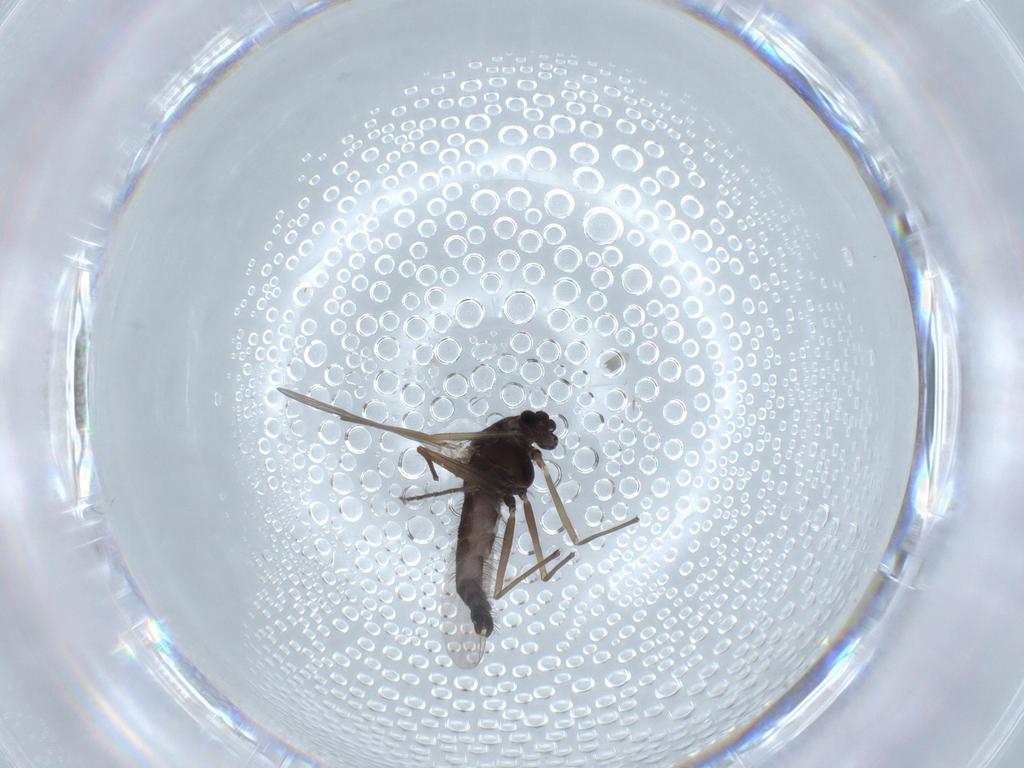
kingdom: Animalia
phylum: Arthropoda
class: Insecta
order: Diptera
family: Chironomidae
